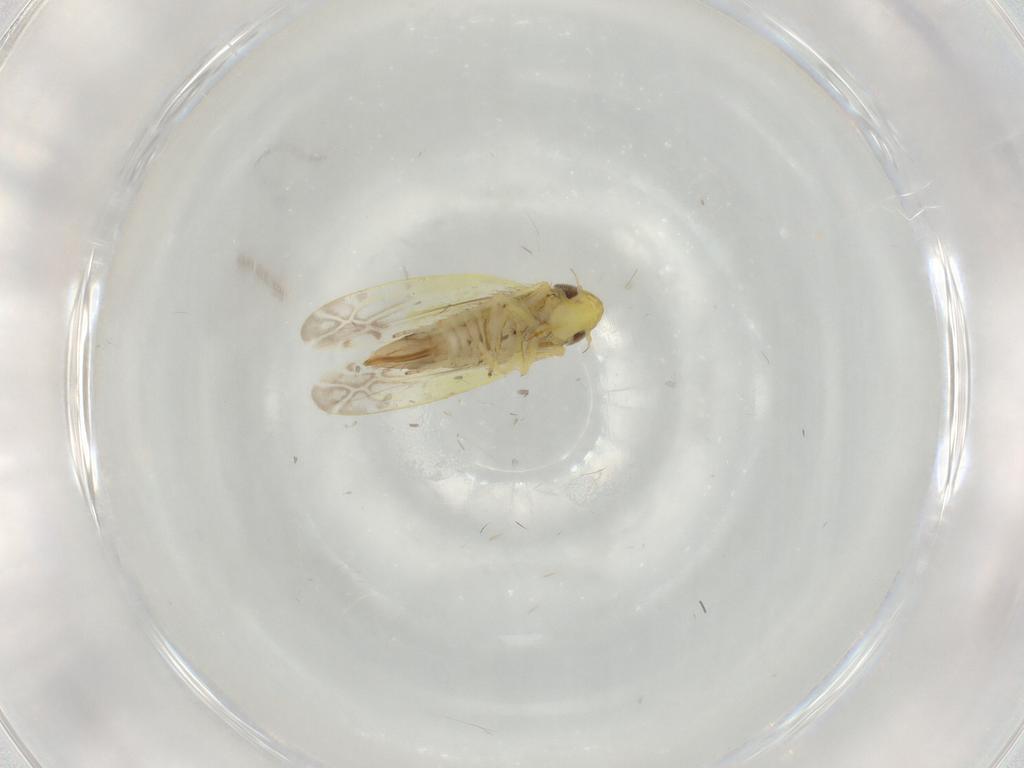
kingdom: Animalia
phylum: Arthropoda
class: Insecta
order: Hemiptera
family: Cicadellidae
